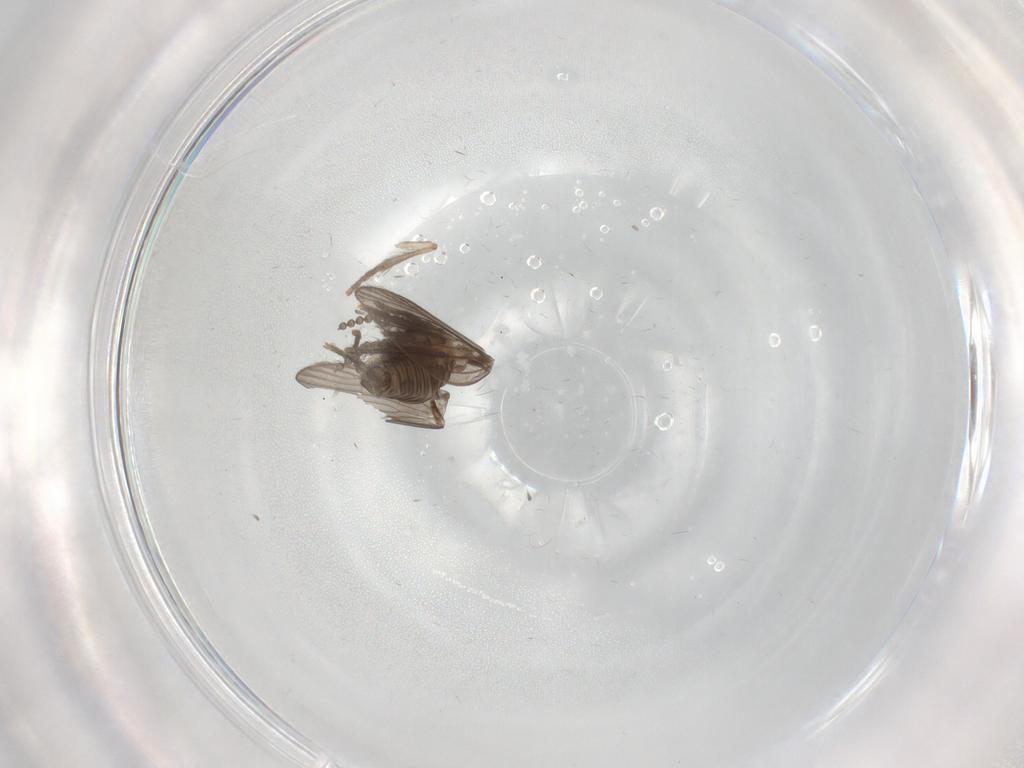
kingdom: Animalia
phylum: Arthropoda
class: Insecta
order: Diptera
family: Psychodidae
